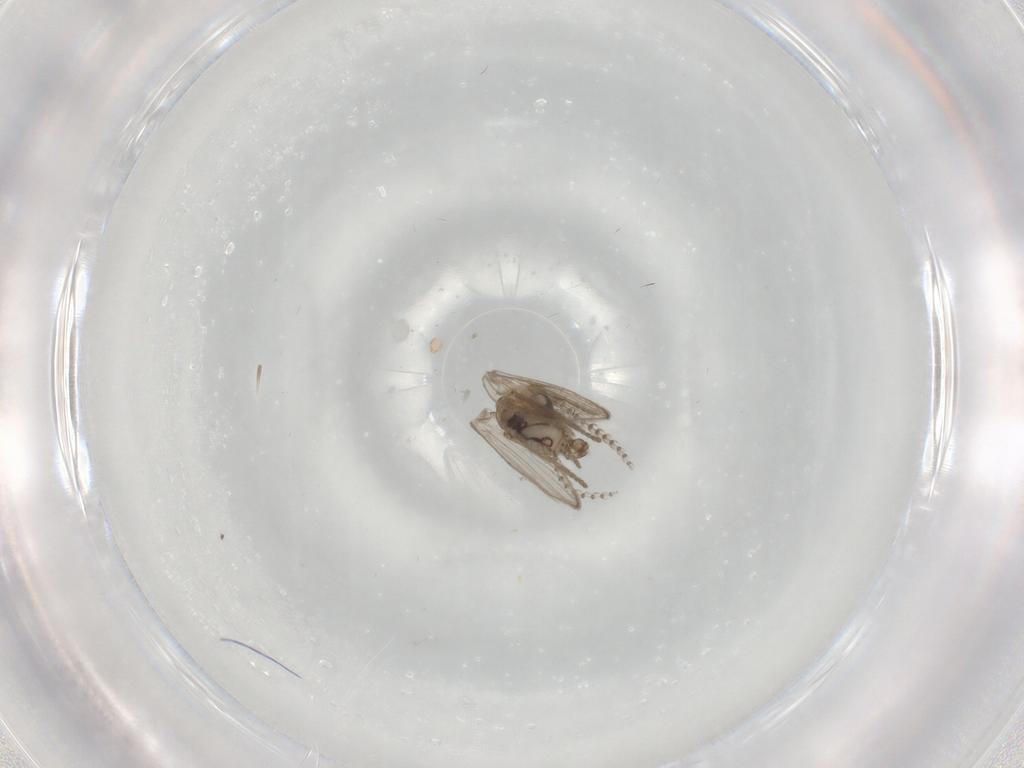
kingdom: Animalia
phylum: Arthropoda
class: Insecta
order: Diptera
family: Psychodidae
